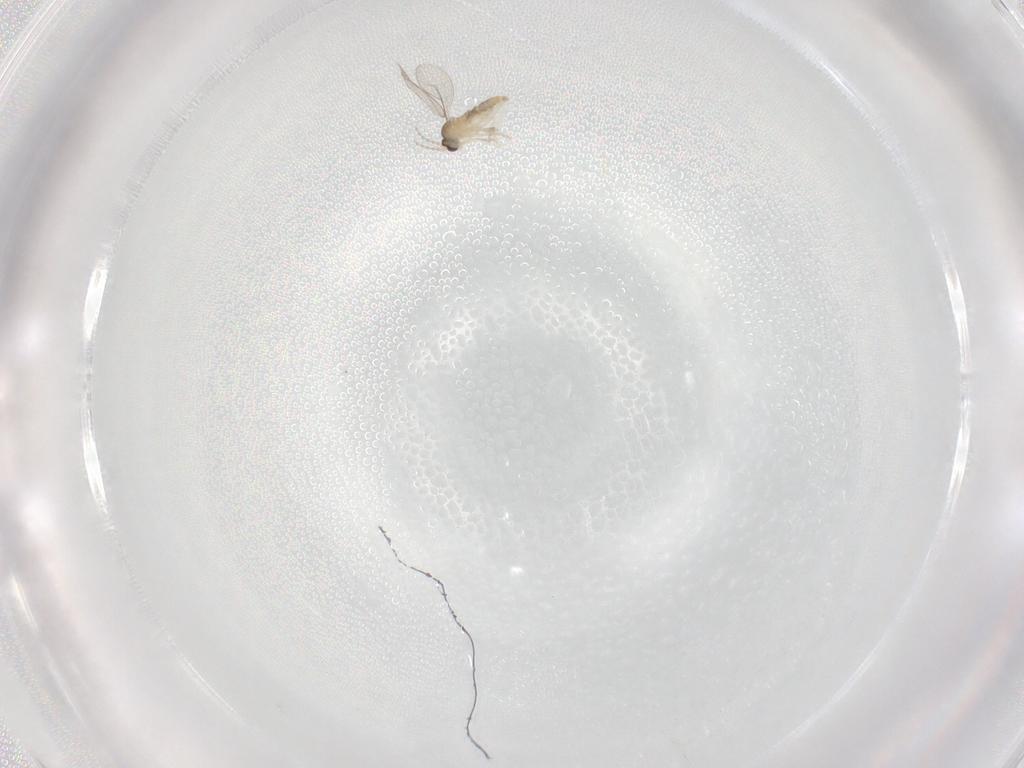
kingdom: Animalia
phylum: Arthropoda
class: Insecta
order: Diptera
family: Cecidomyiidae
